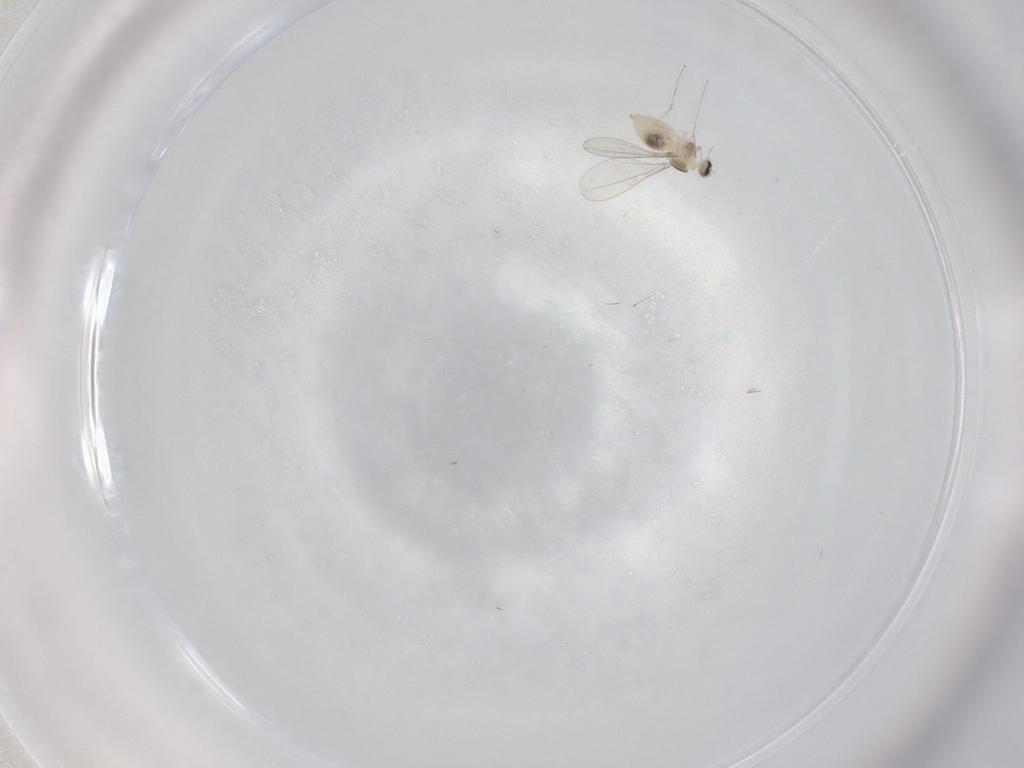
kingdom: Animalia
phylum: Arthropoda
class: Insecta
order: Diptera
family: Cecidomyiidae
